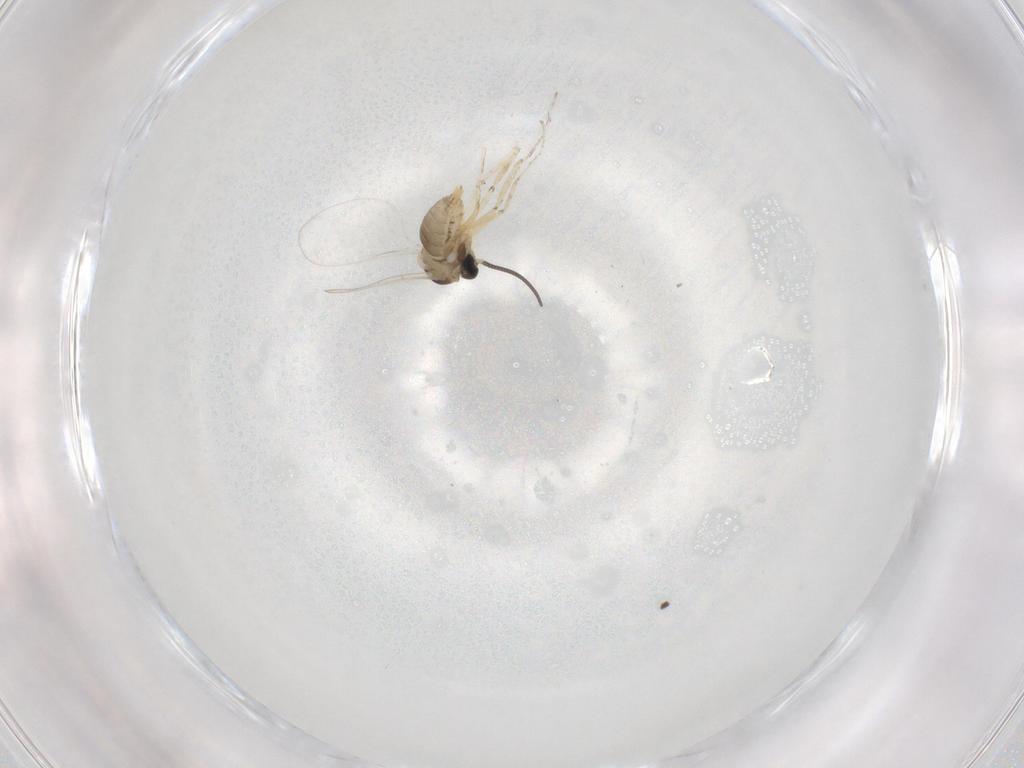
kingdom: Animalia
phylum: Arthropoda
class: Insecta
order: Diptera
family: Cecidomyiidae
